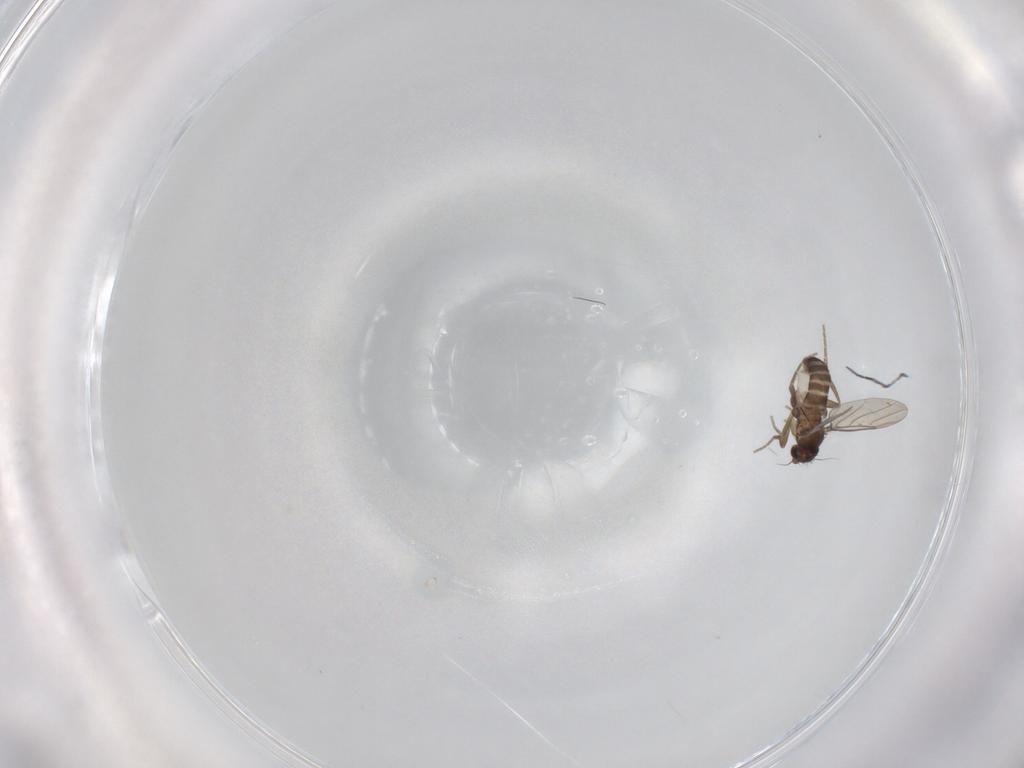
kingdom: Animalia
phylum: Arthropoda
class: Insecta
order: Diptera
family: Phoridae
